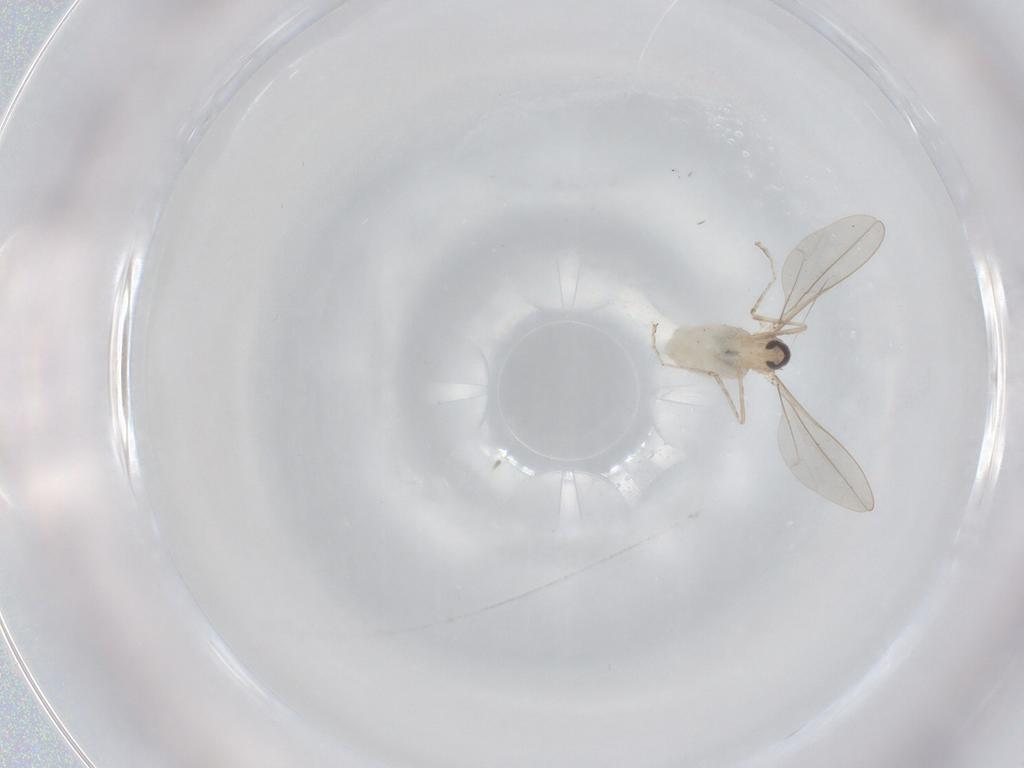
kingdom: Animalia
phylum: Arthropoda
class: Insecta
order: Diptera
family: Cecidomyiidae
